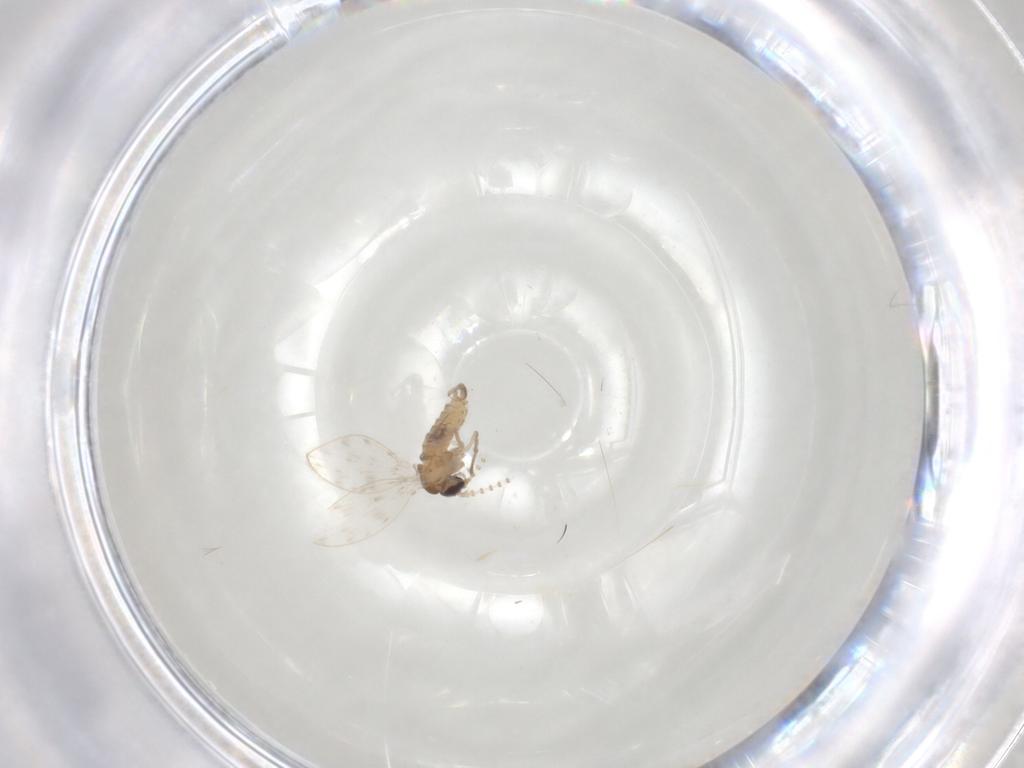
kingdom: Animalia
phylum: Arthropoda
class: Insecta
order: Diptera
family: Psychodidae
